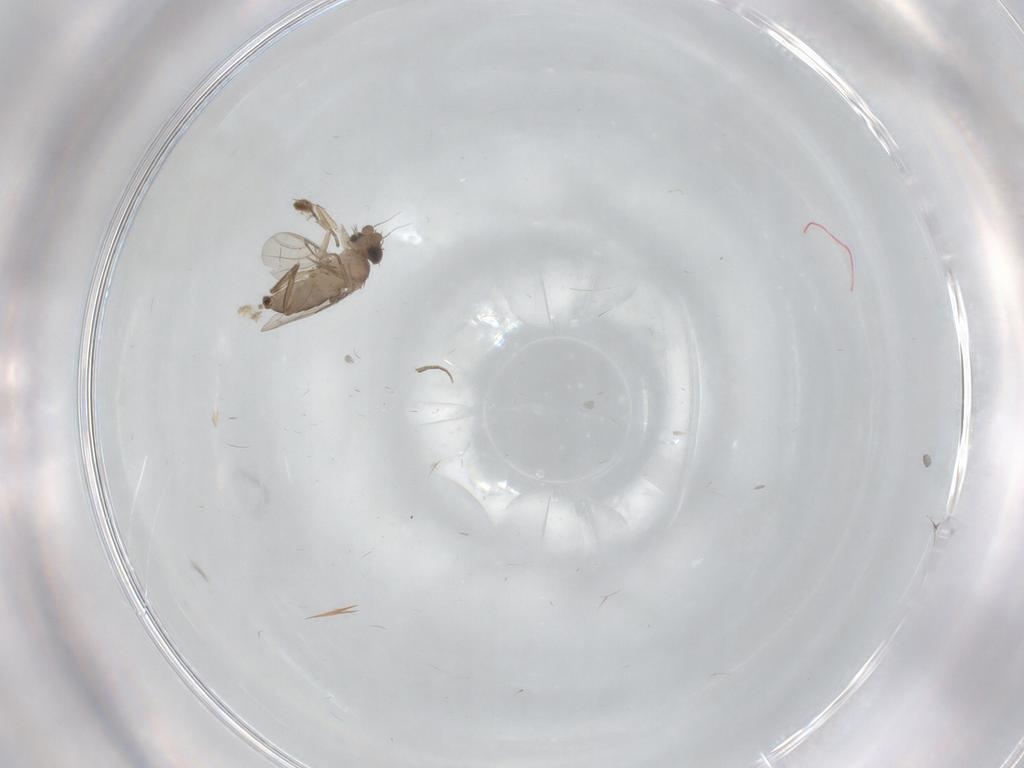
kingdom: Animalia
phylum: Arthropoda
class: Insecta
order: Diptera
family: Phoridae
